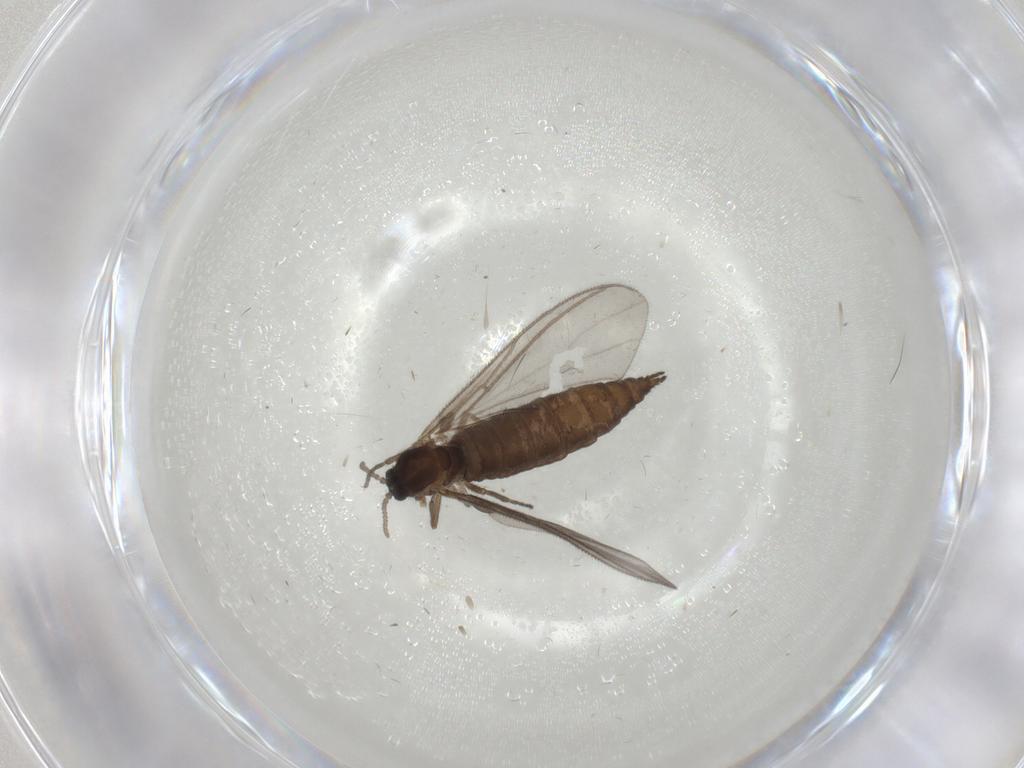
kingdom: Animalia
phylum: Arthropoda
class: Insecta
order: Diptera
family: Sciaridae
